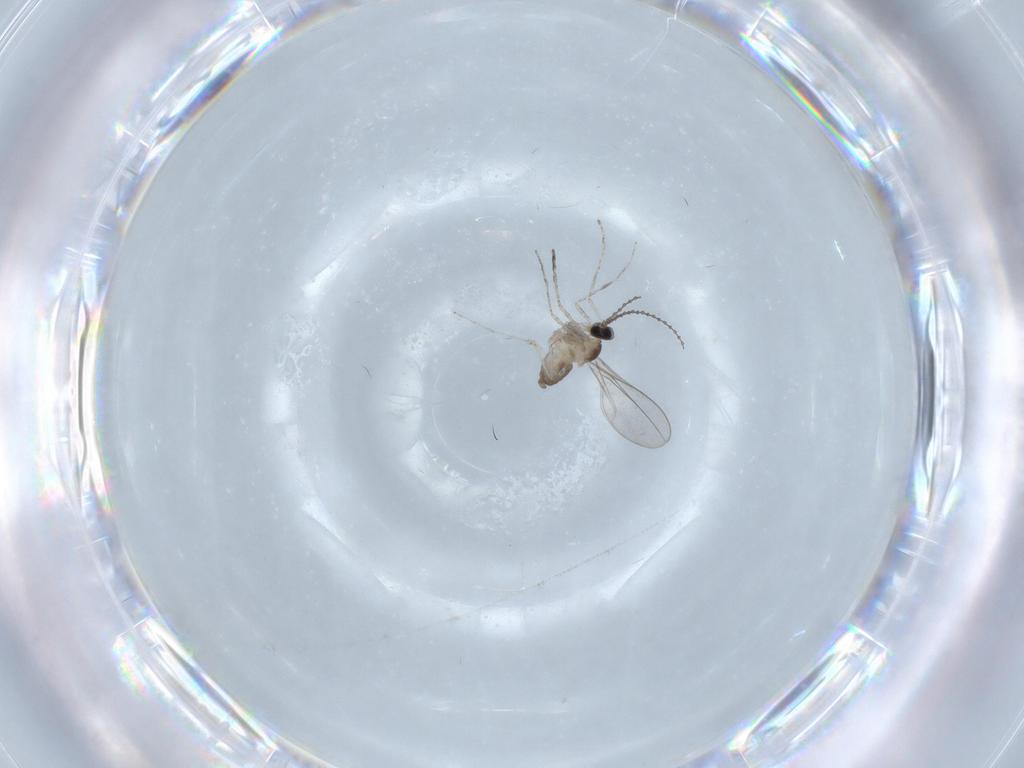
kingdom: Animalia
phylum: Arthropoda
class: Insecta
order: Diptera
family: Cecidomyiidae
